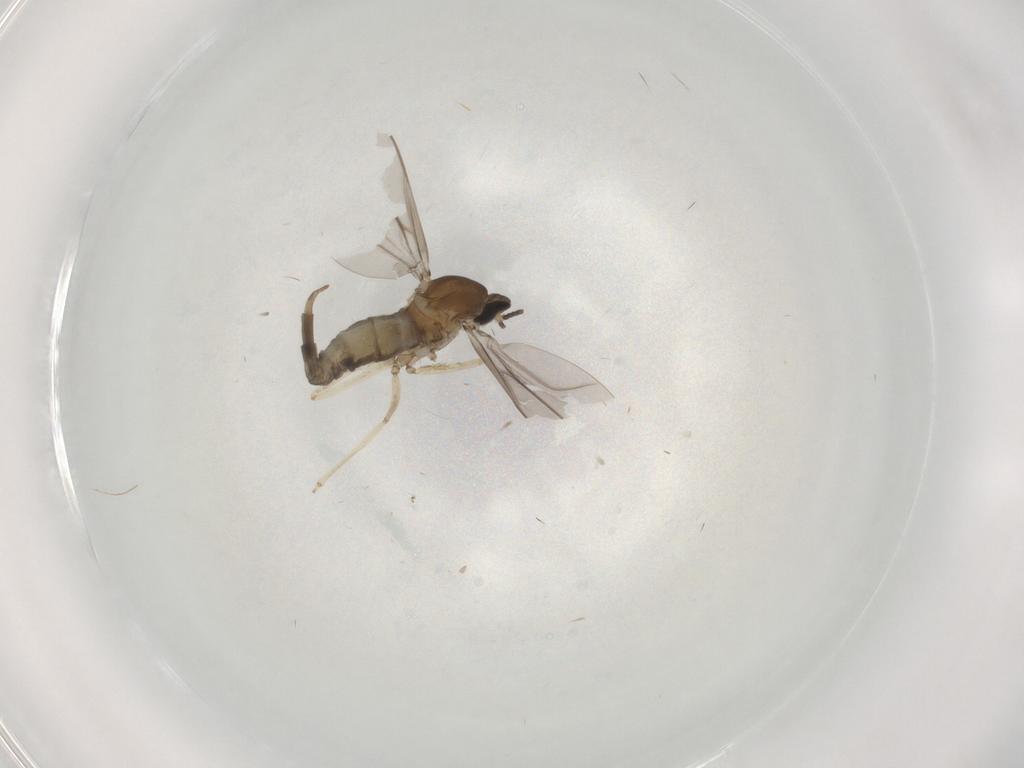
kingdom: Animalia
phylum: Arthropoda
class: Insecta
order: Diptera
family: Cecidomyiidae
